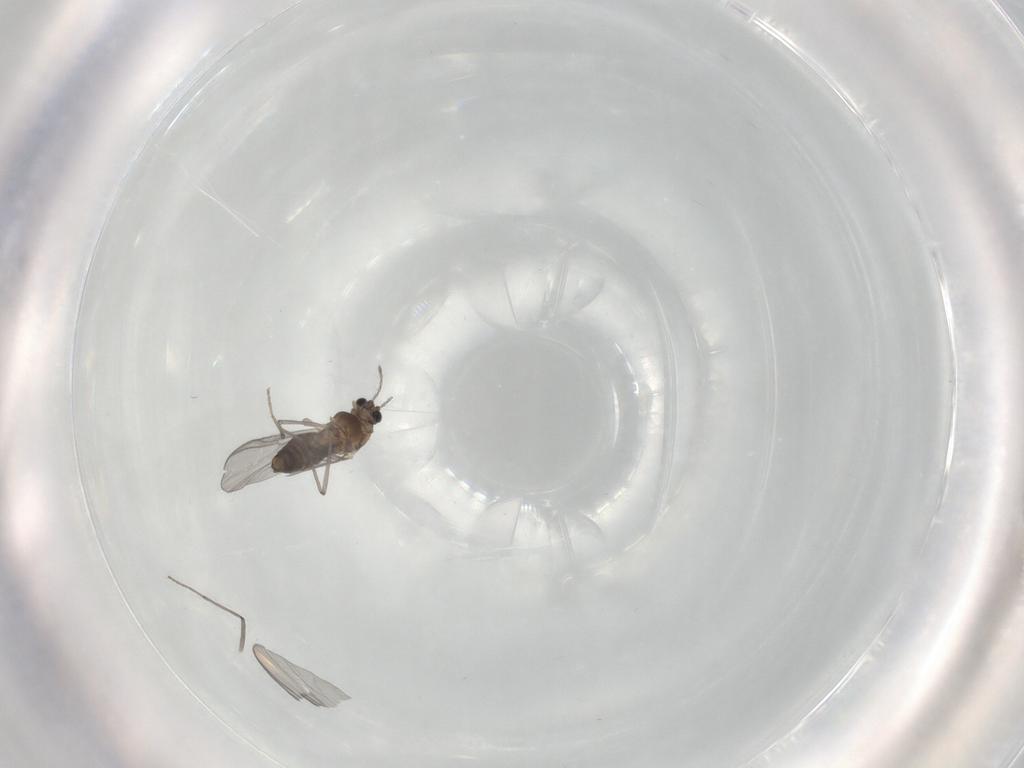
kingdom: Animalia
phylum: Arthropoda
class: Insecta
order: Diptera
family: Chironomidae
